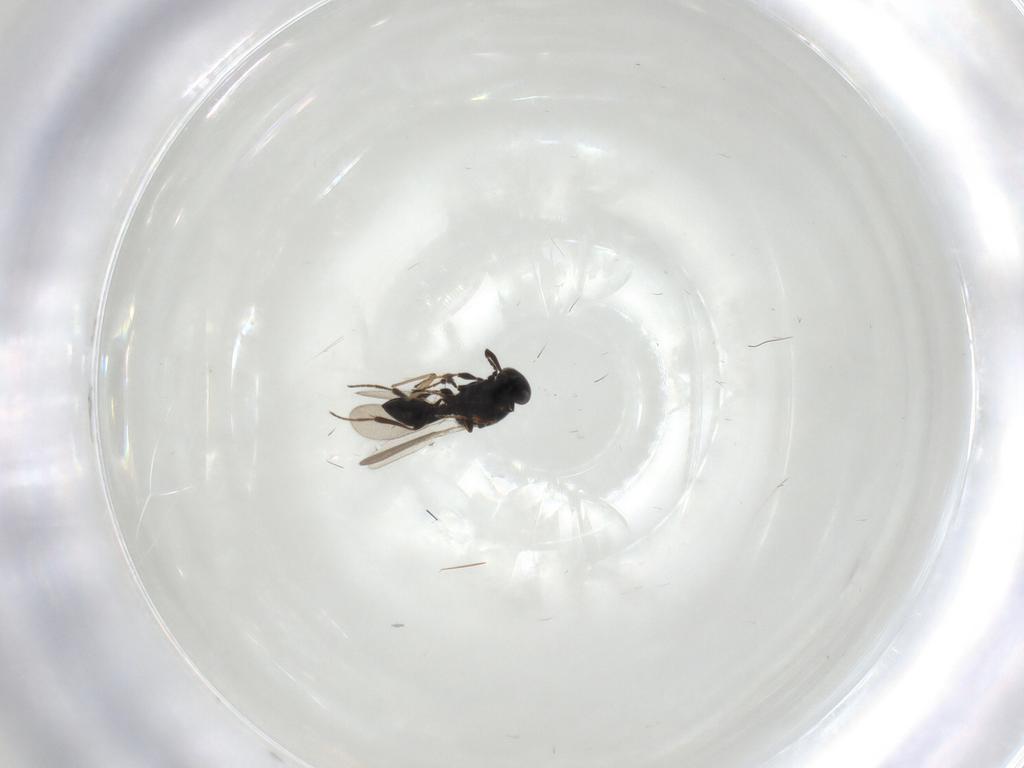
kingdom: Animalia
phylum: Arthropoda
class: Insecta
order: Hymenoptera
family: Platygastridae
